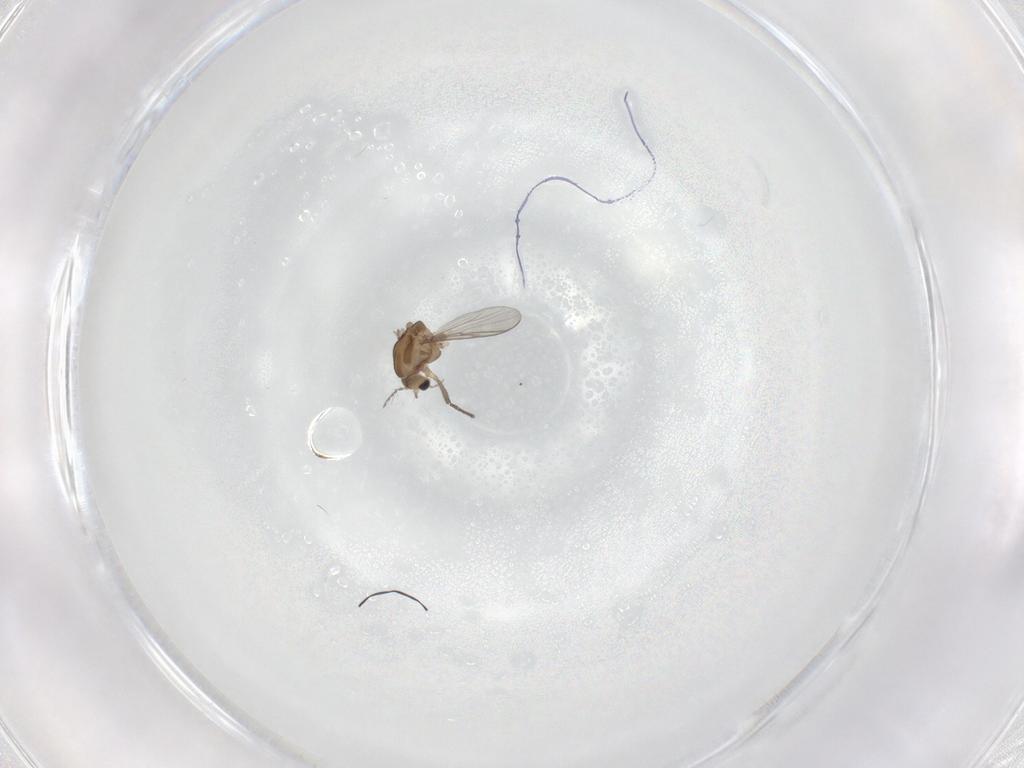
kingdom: Animalia
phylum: Arthropoda
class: Insecta
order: Diptera
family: Chironomidae
